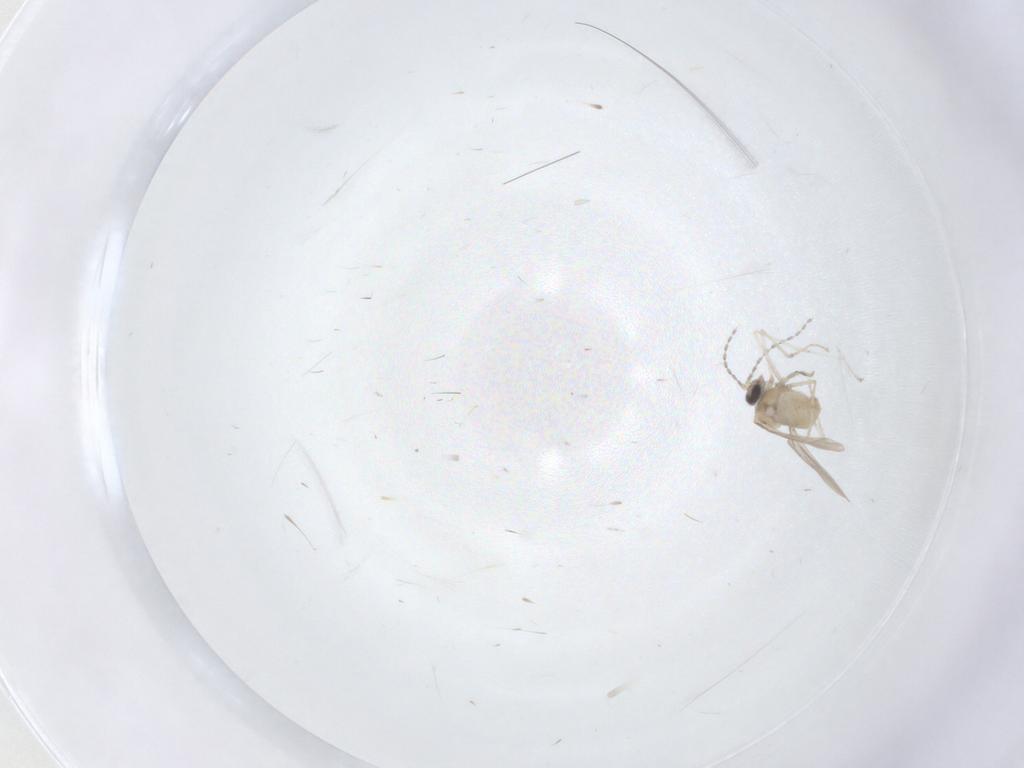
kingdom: Animalia
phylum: Arthropoda
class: Insecta
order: Diptera
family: Cecidomyiidae
